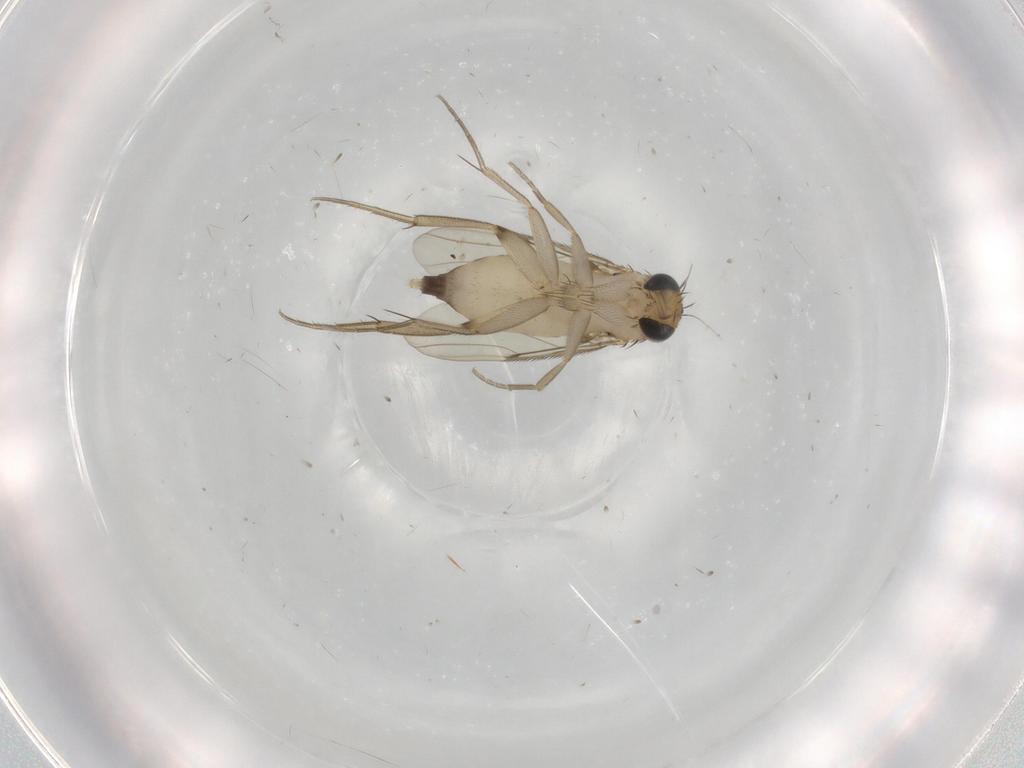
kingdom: Animalia
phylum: Arthropoda
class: Insecta
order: Diptera
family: Phoridae
